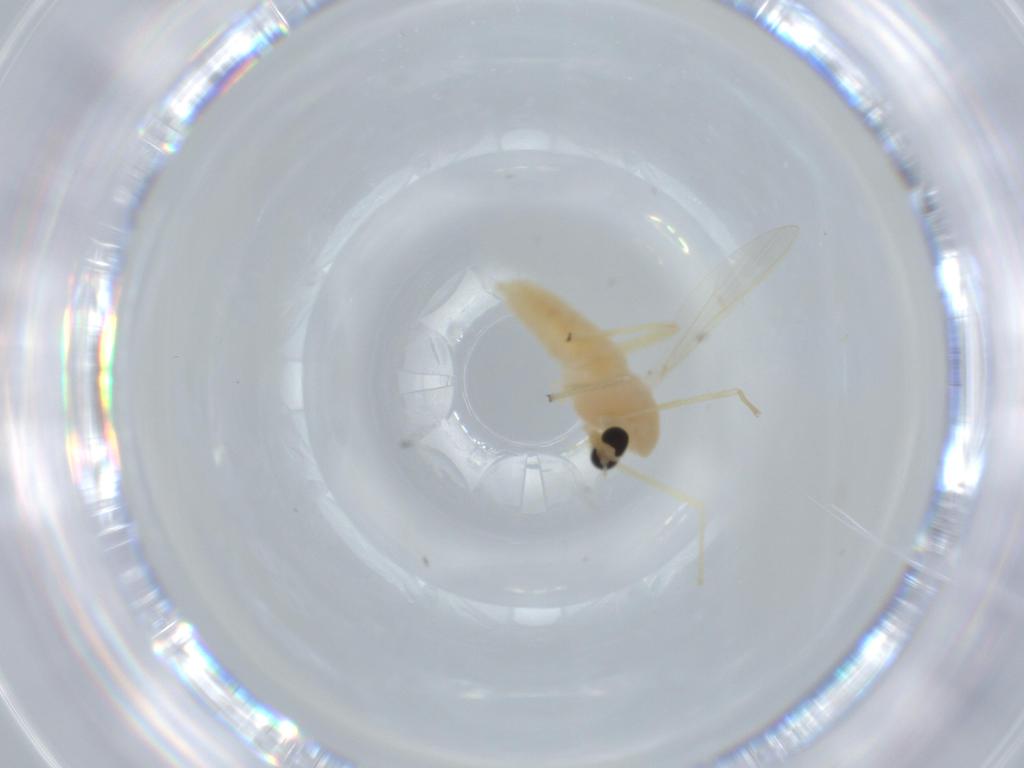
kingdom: Animalia
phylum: Arthropoda
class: Insecta
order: Diptera
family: Chironomidae
